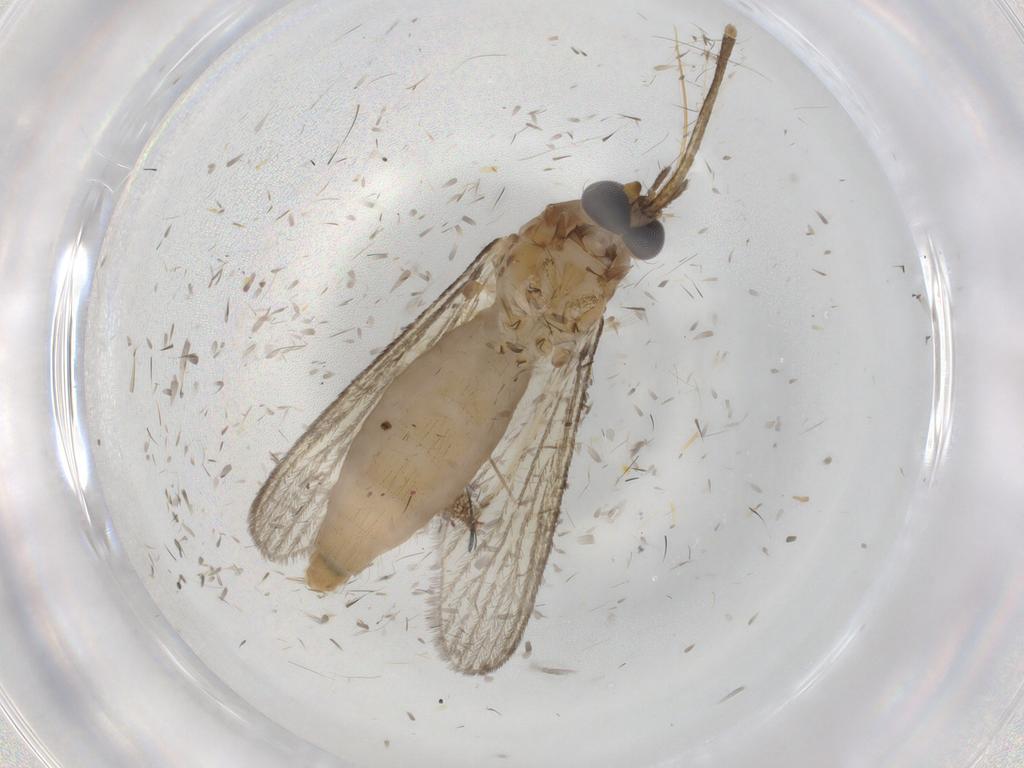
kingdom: Animalia
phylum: Arthropoda
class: Insecta
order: Diptera
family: Culicidae
